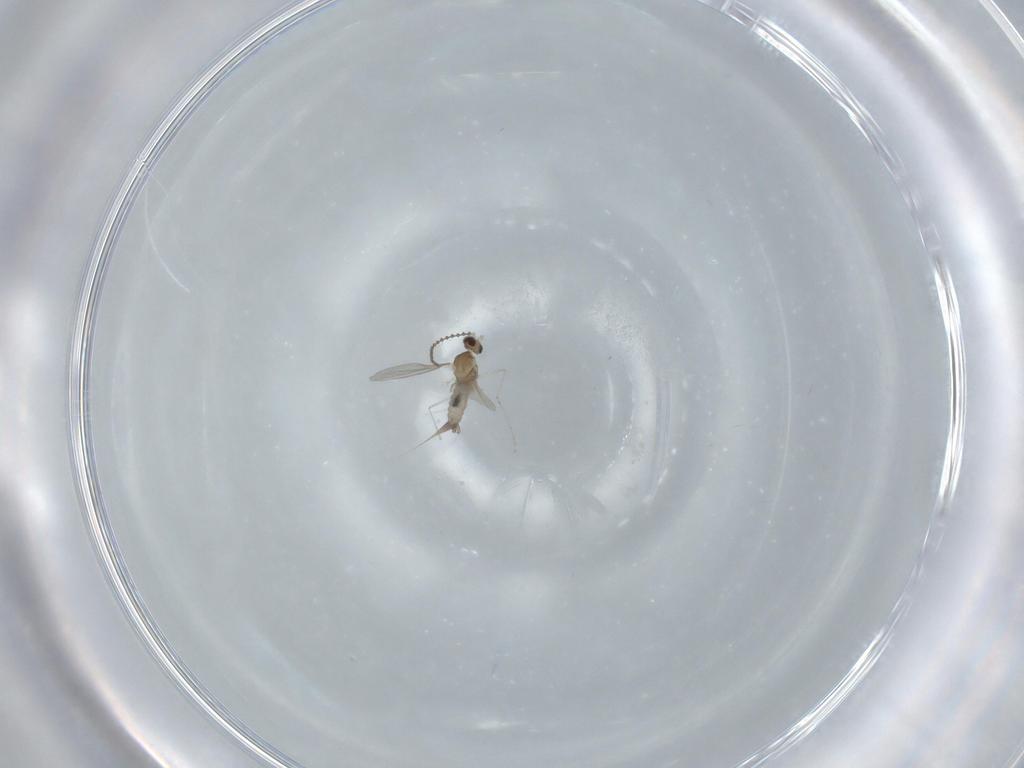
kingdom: Animalia
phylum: Arthropoda
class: Insecta
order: Diptera
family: Cecidomyiidae
